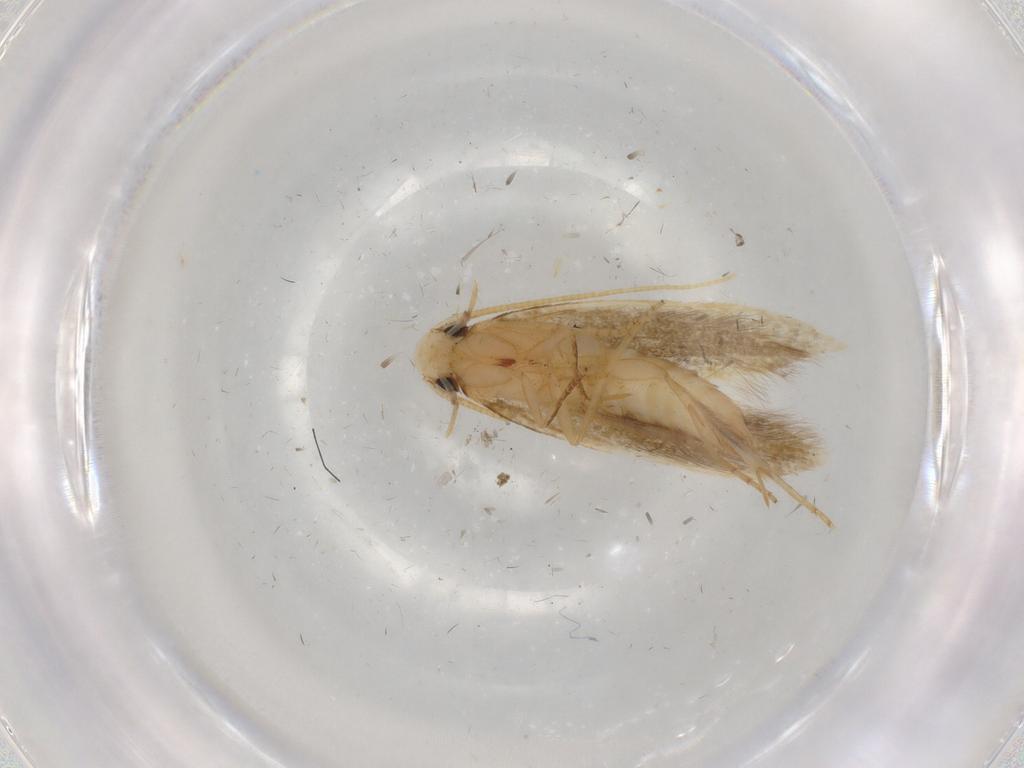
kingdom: Animalia
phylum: Arthropoda
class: Insecta
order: Lepidoptera
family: Tineidae
